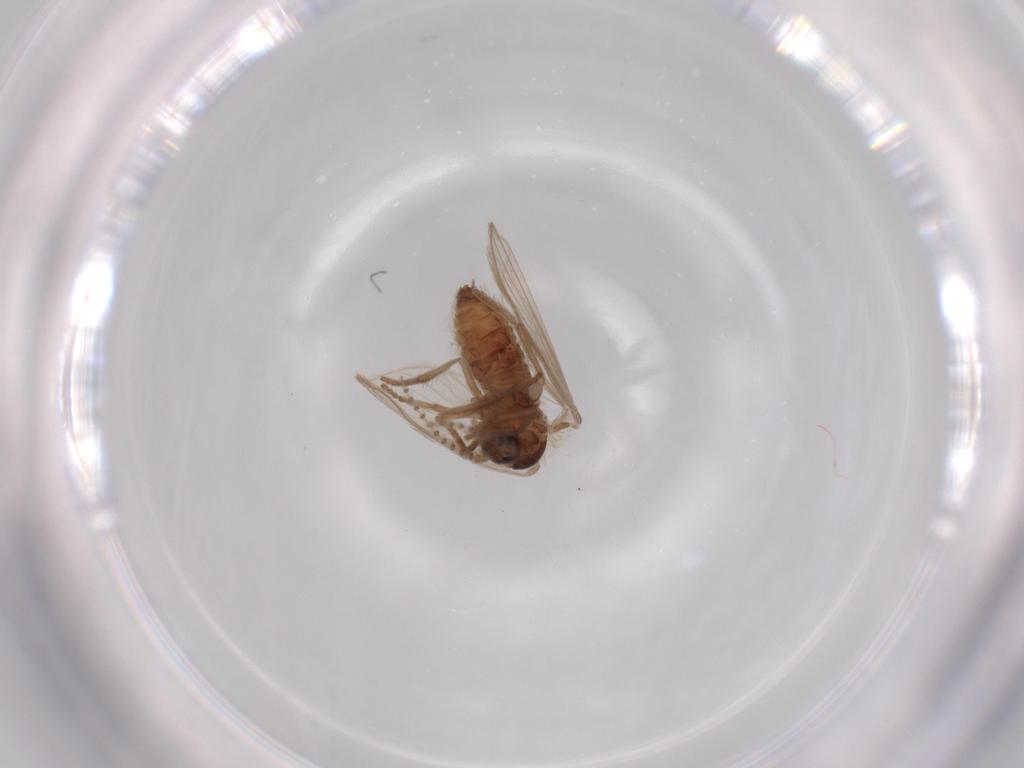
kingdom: Animalia
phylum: Arthropoda
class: Insecta
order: Diptera
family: Psychodidae
